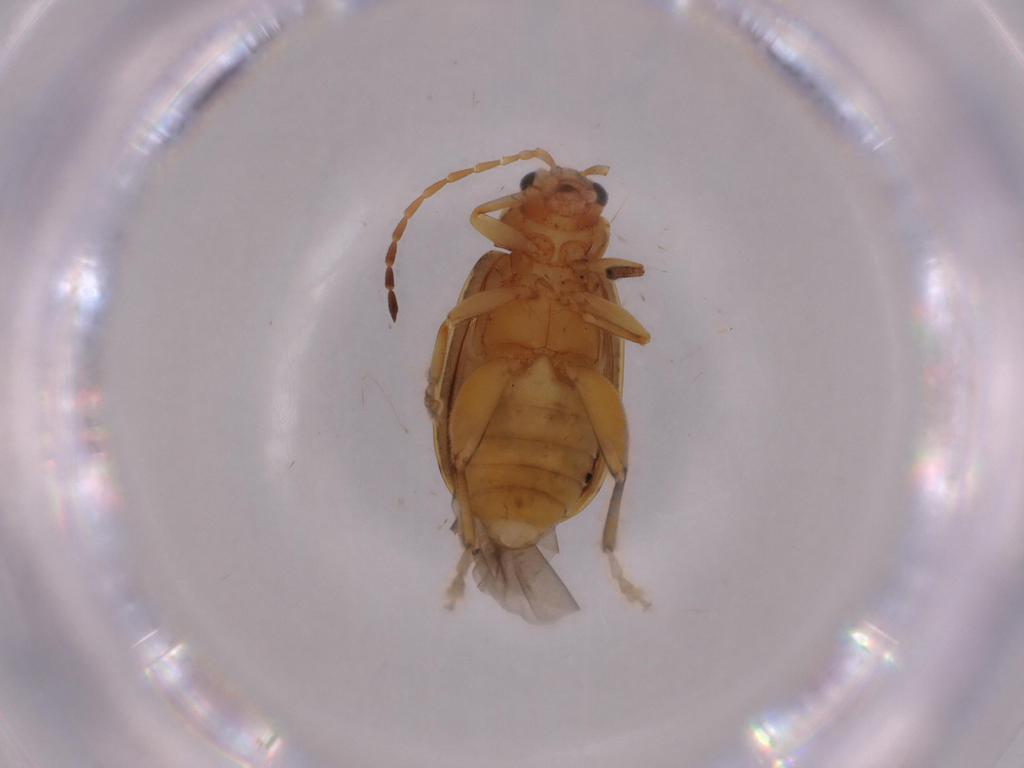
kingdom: Animalia
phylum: Arthropoda
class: Insecta
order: Coleoptera
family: Chrysomelidae
